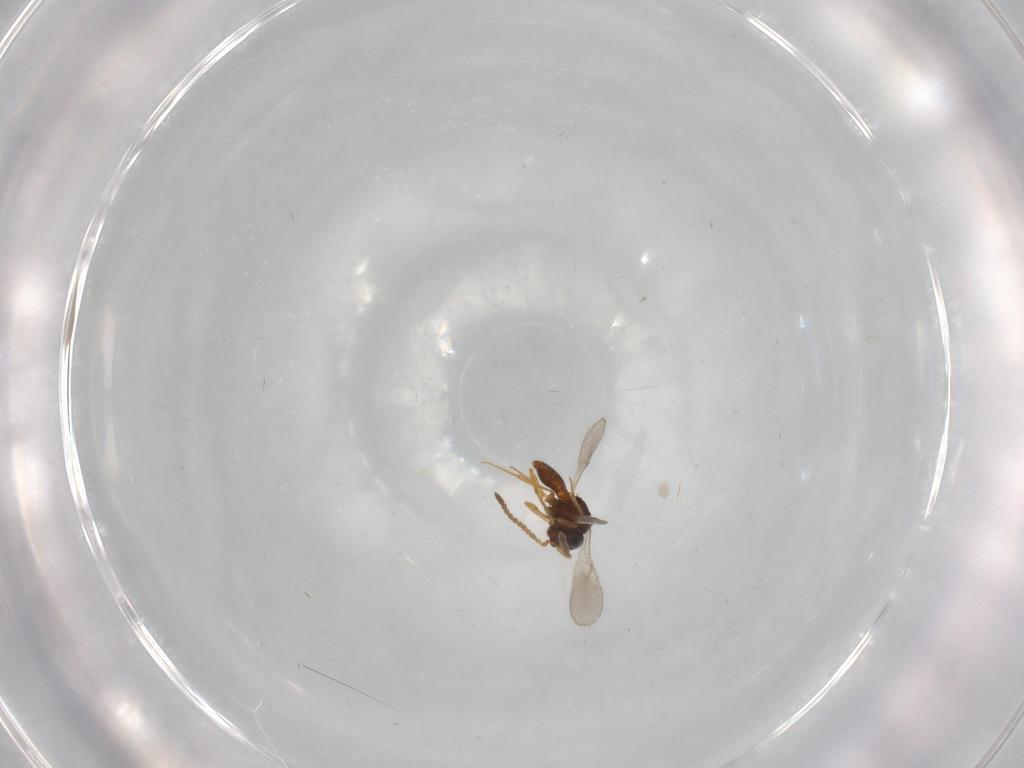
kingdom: Animalia
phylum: Arthropoda
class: Insecta
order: Hymenoptera
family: Scelionidae
